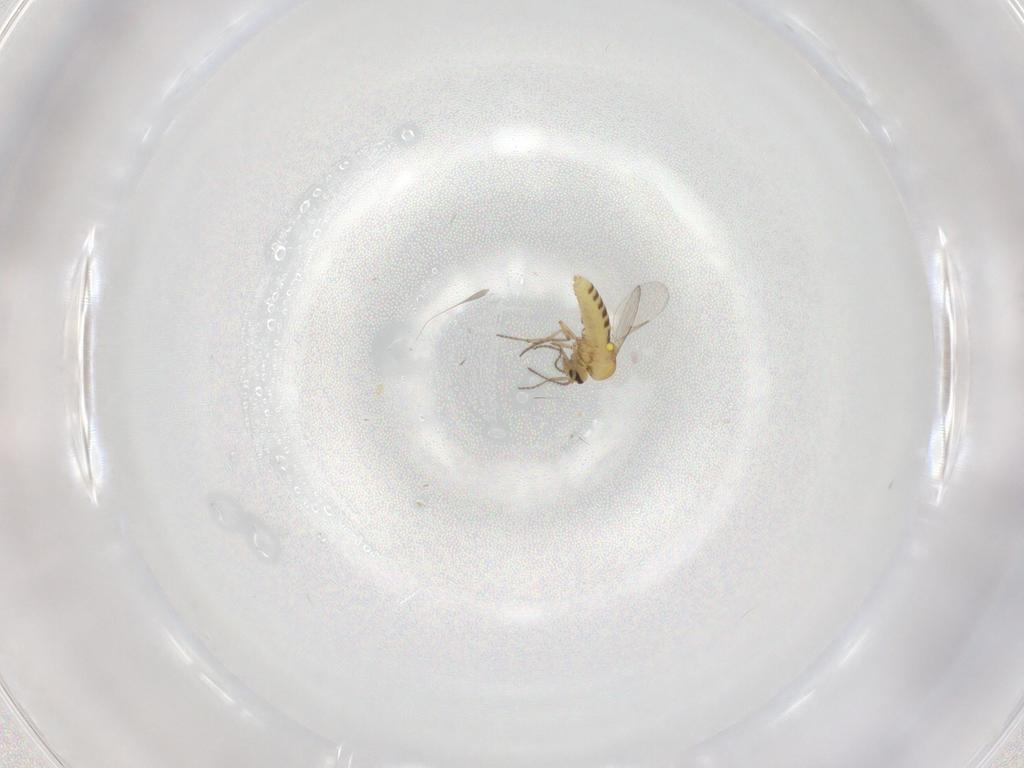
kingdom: Animalia
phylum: Arthropoda
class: Insecta
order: Diptera
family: Ceratopogonidae
